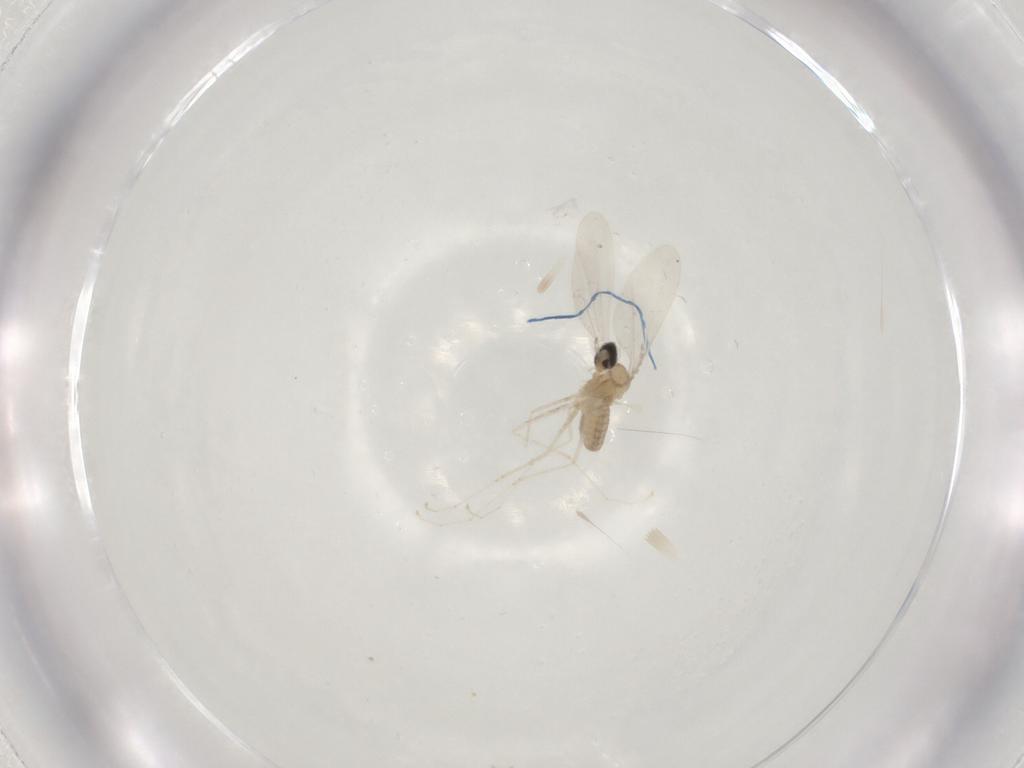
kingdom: Animalia
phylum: Arthropoda
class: Insecta
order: Diptera
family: Cecidomyiidae
